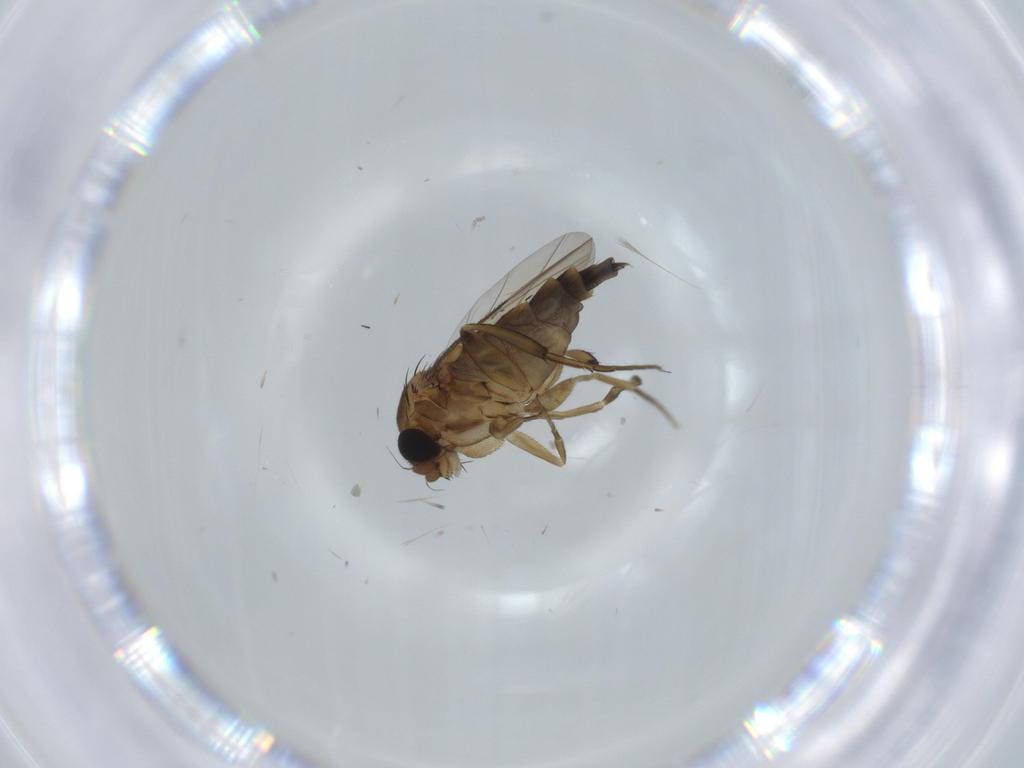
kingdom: Animalia
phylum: Arthropoda
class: Insecta
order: Diptera
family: Phoridae
